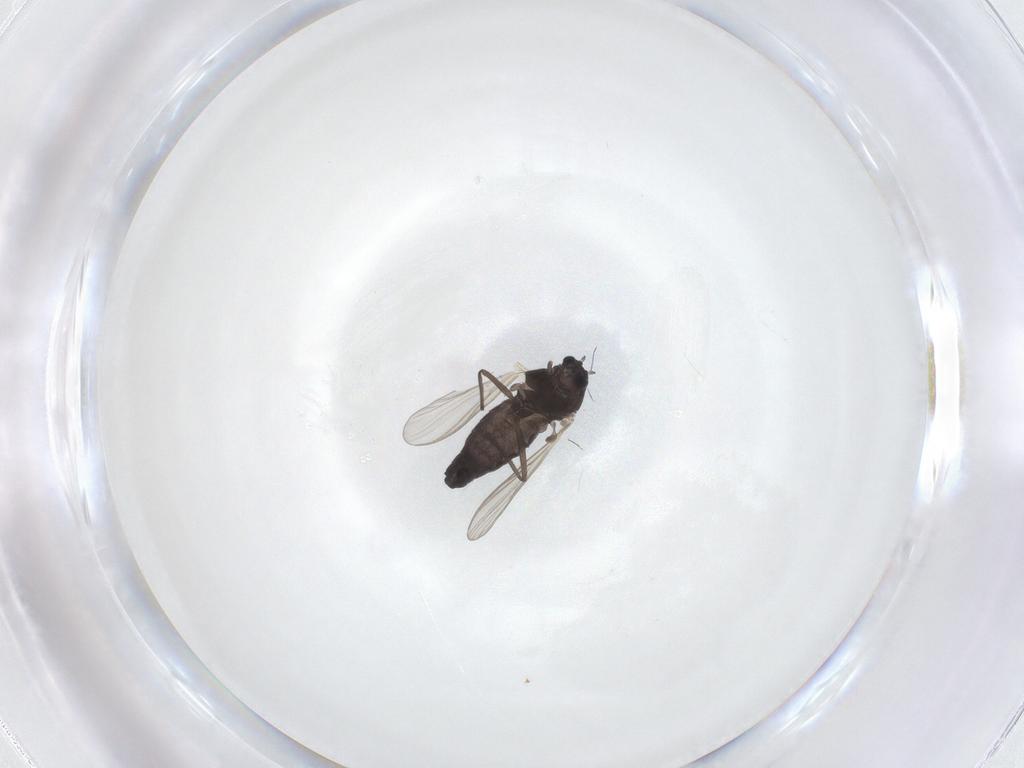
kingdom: Animalia
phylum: Arthropoda
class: Insecta
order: Diptera
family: Chironomidae
